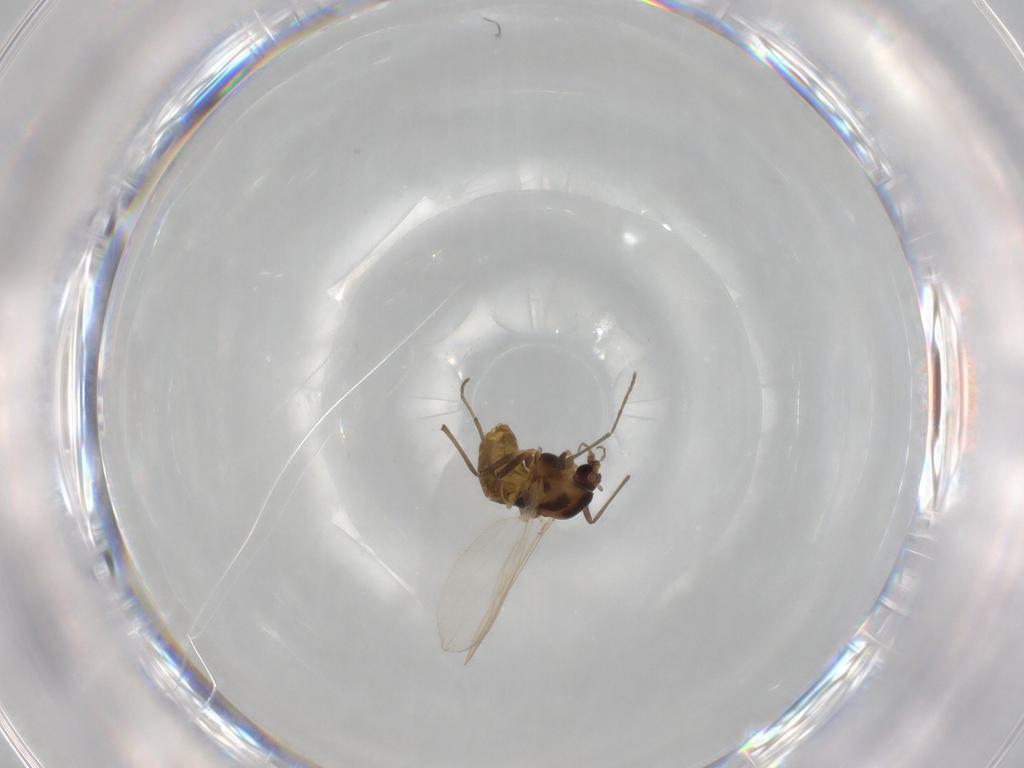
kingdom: Animalia
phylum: Arthropoda
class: Insecta
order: Diptera
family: Chironomidae
